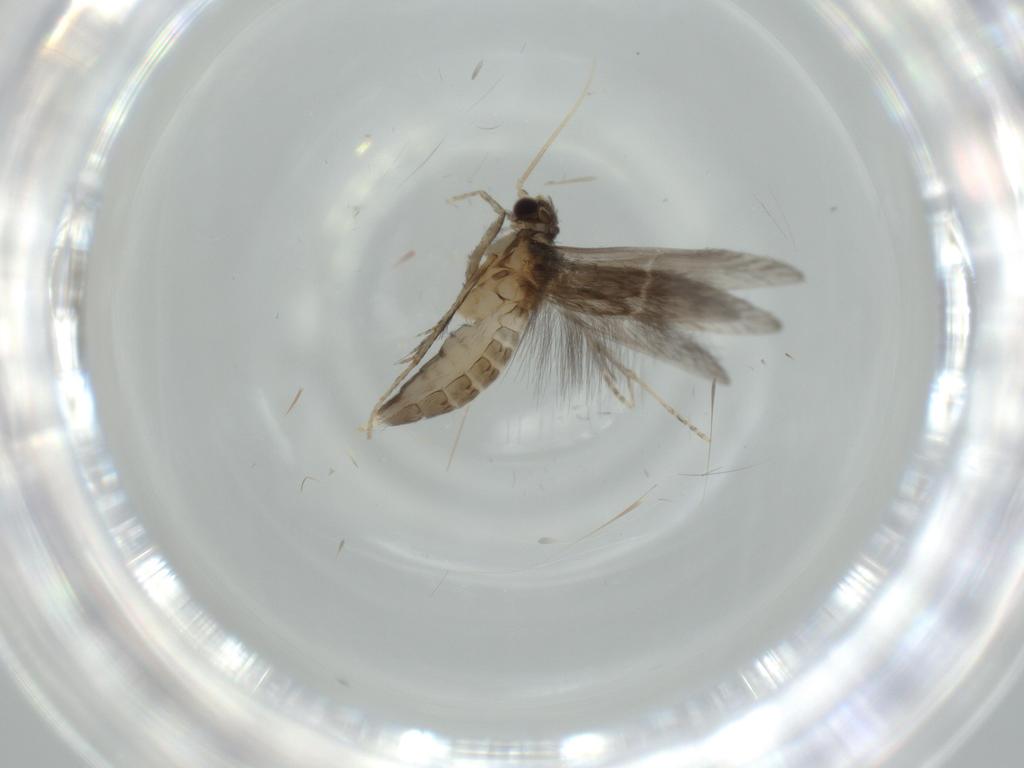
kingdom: Animalia
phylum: Arthropoda
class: Insecta
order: Trichoptera
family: Hydroptilidae
